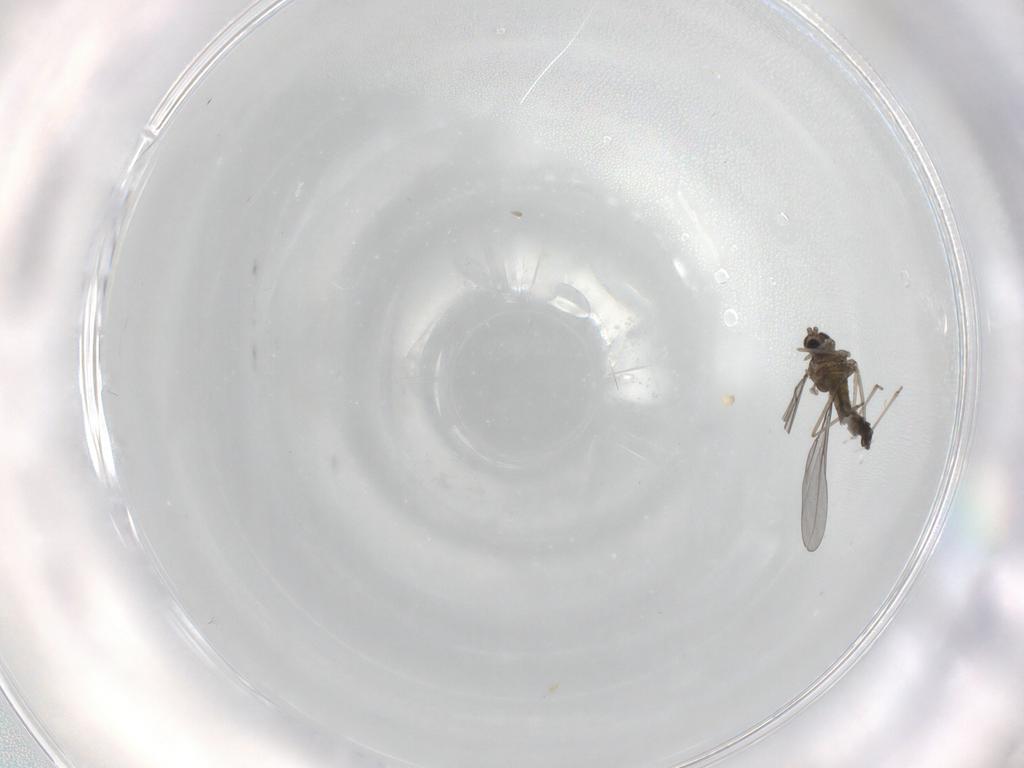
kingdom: Animalia
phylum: Arthropoda
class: Insecta
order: Diptera
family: Cecidomyiidae
